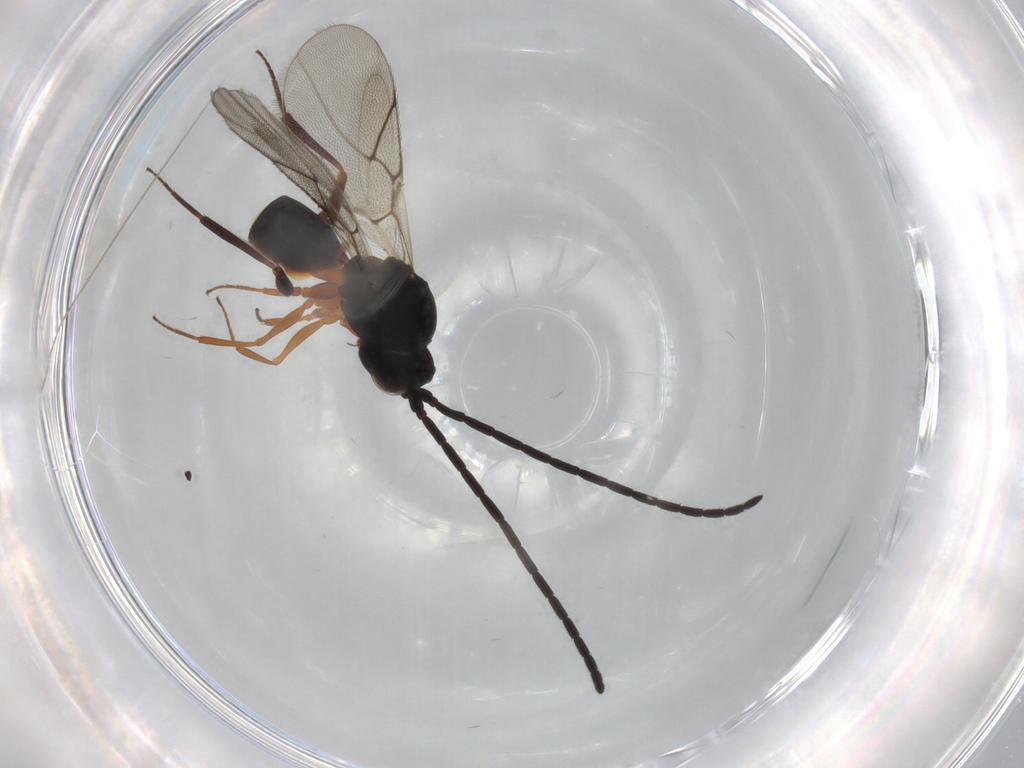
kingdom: Animalia
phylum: Arthropoda
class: Insecta
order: Hymenoptera
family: Figitidae
